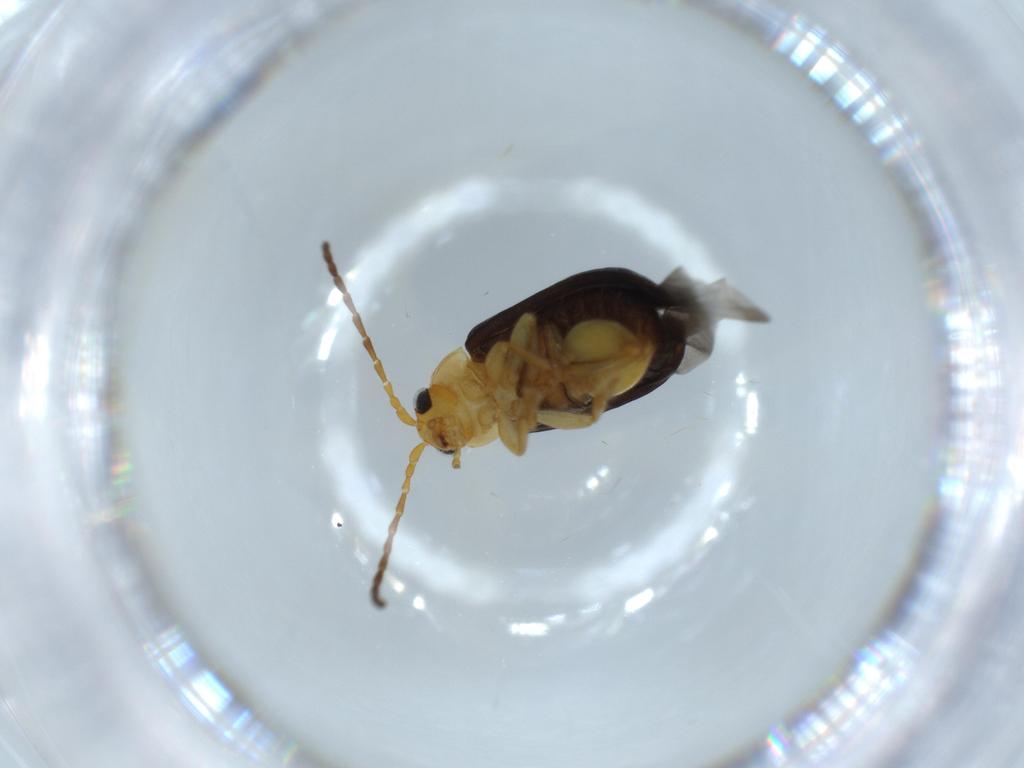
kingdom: Animalia
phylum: Arthropoda
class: Insecta
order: Coleoptera
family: Chrysomelidae
